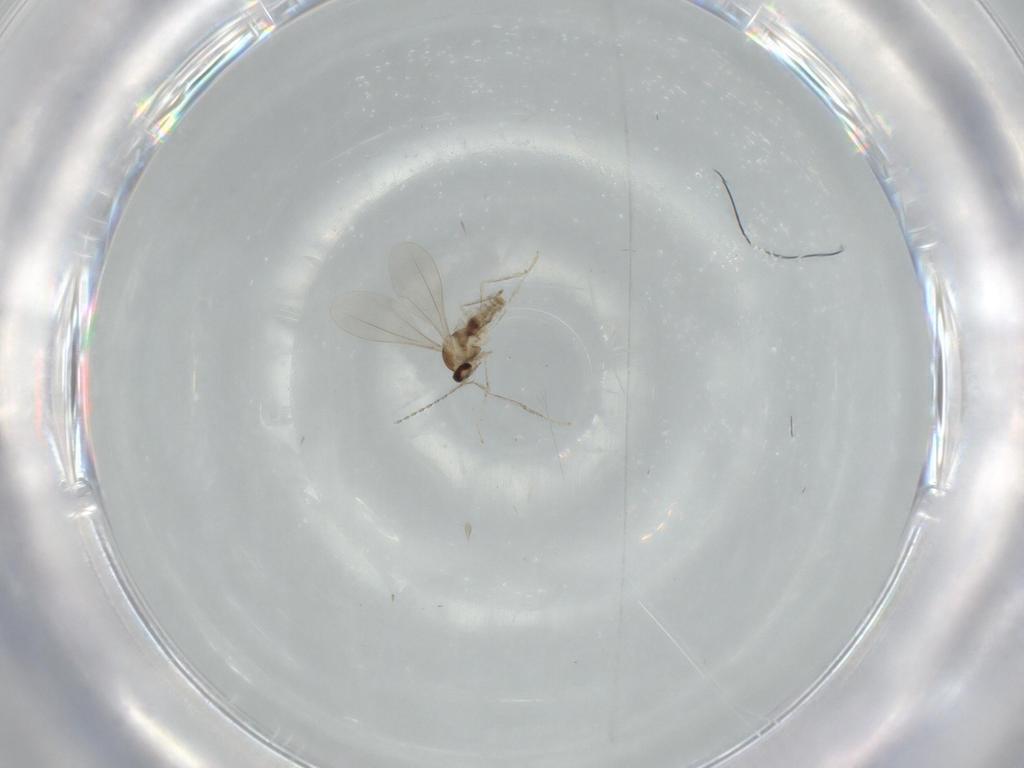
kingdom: Animalia
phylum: Arthropoda
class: Insecta
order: Diptera
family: Cecidomyiidae
